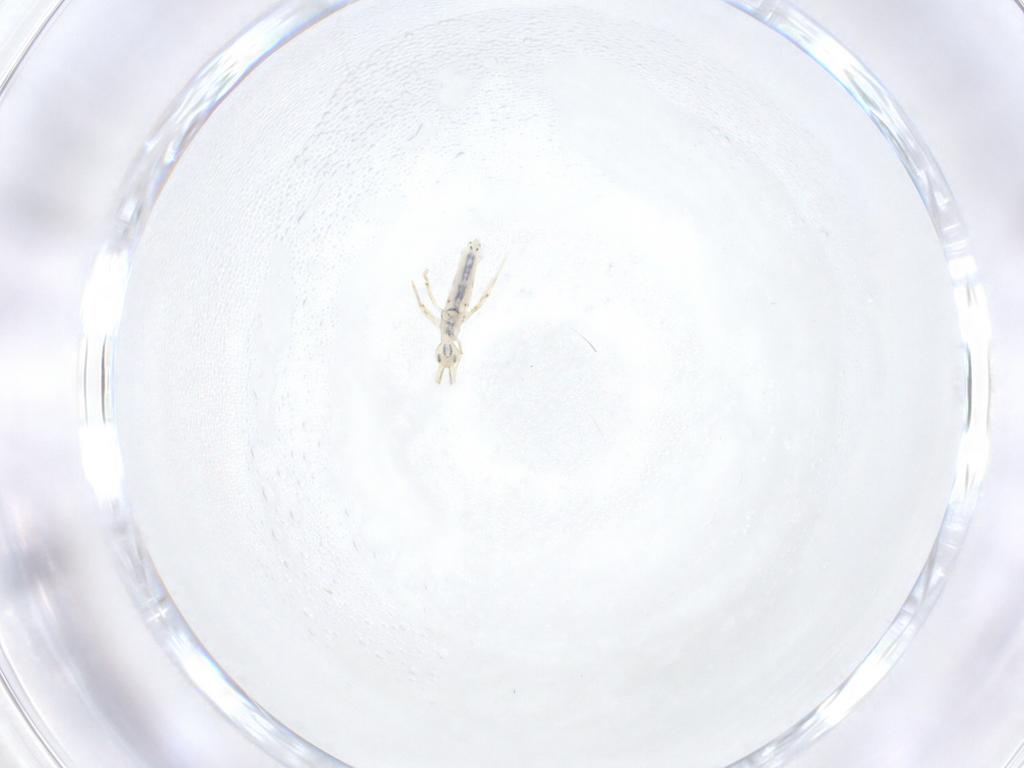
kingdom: Animalia
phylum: Arthropoda
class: Collembola
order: Entomobryomorpha
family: Entomobryidae
